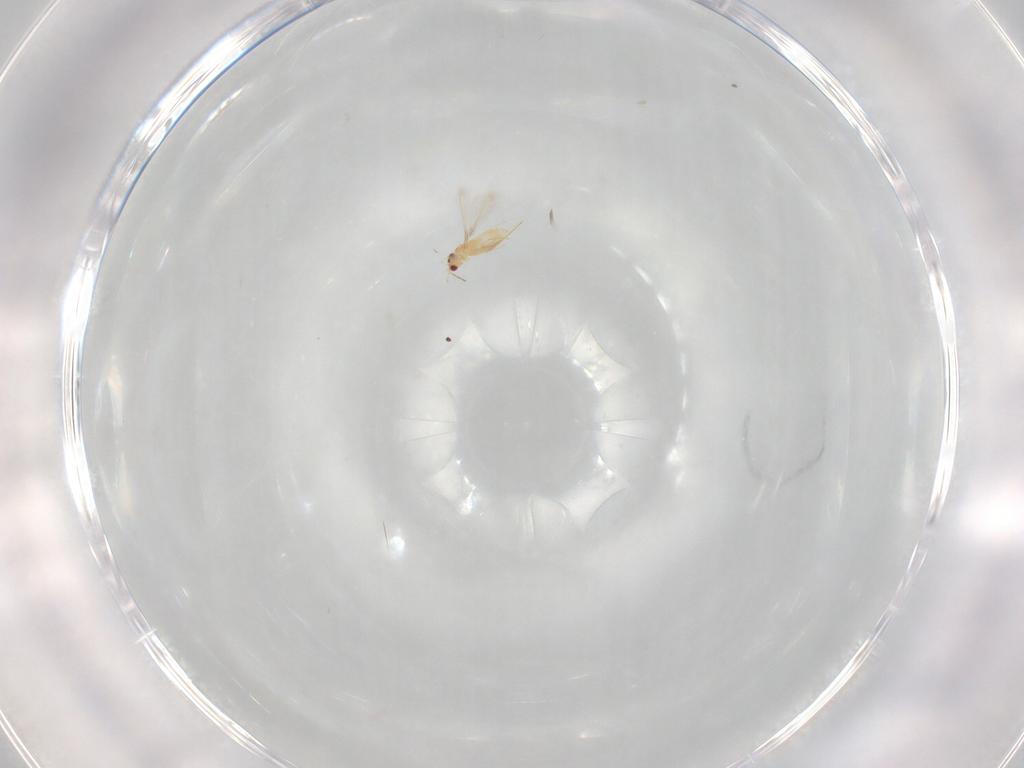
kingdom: Animalia
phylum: Arthropoda
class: Insecta
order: Hymenoptera
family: Mymaridae
